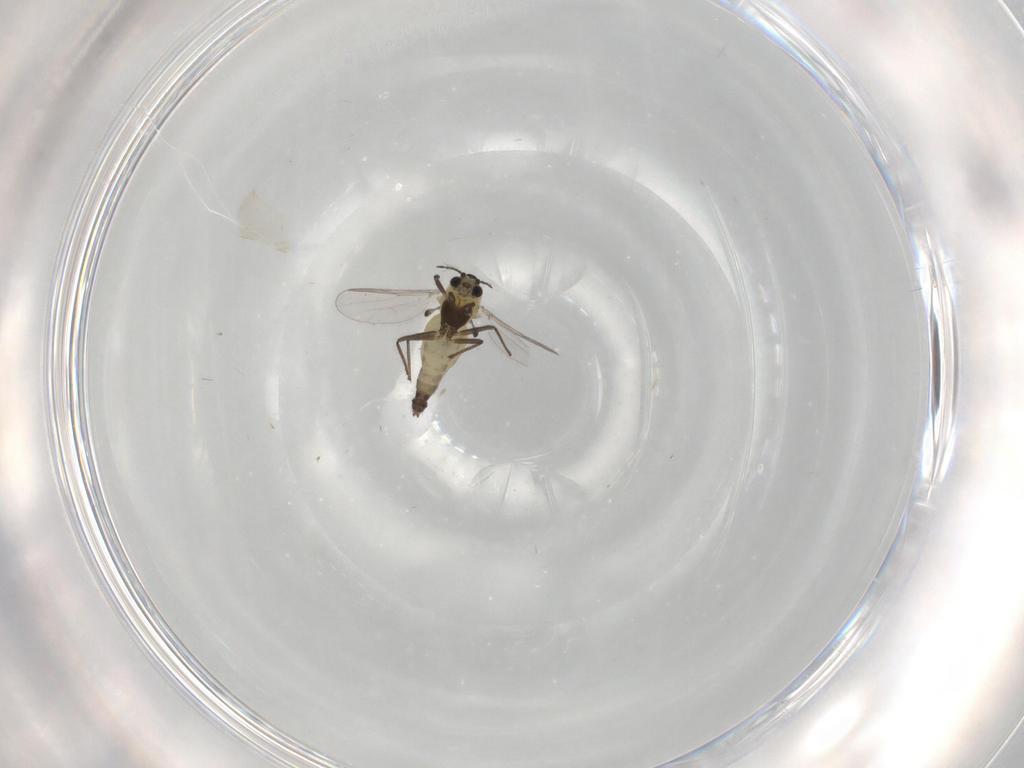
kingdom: Animalia
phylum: Arthropoda
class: Insecta
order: Diptera
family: Chironomidae
